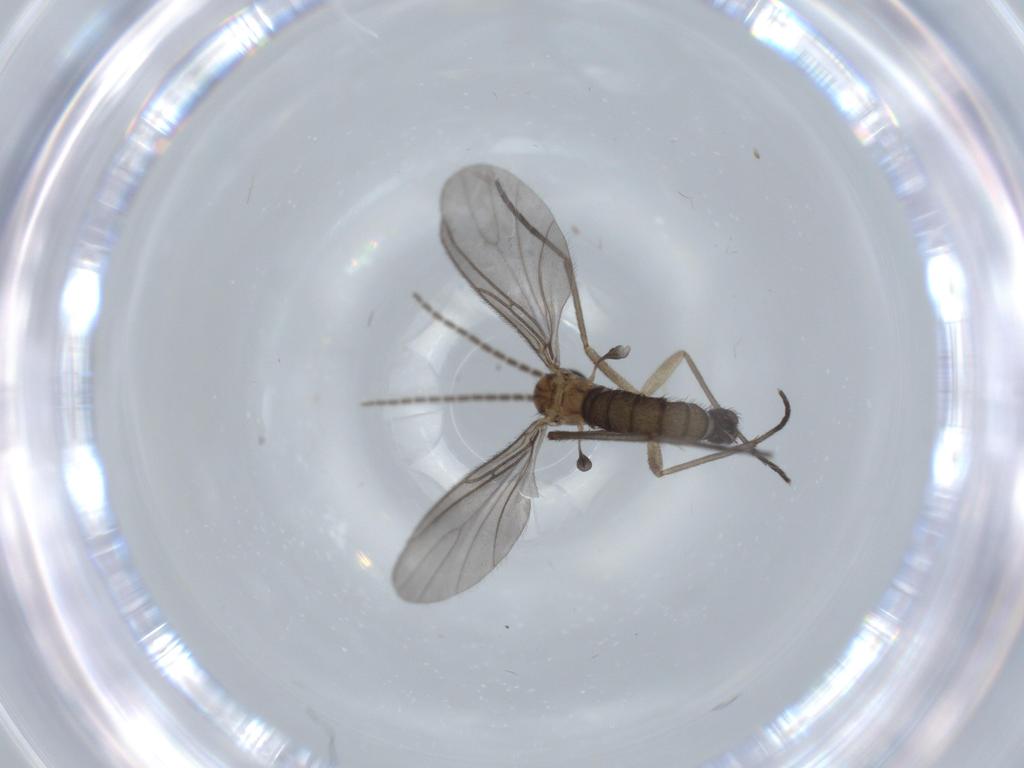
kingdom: Animalia
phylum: Arthropoda
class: Insecta
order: Diptera
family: Sciaridae
